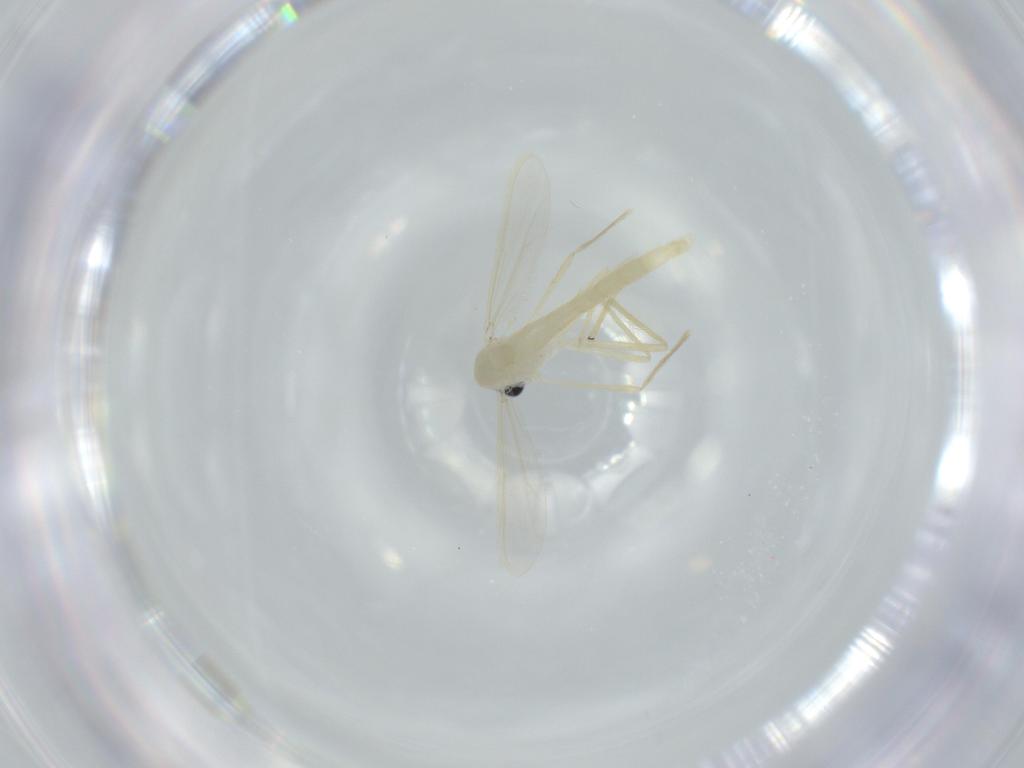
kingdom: Animalia
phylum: Arthropoda
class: Insecta
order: Diptera
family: Chironomidae
